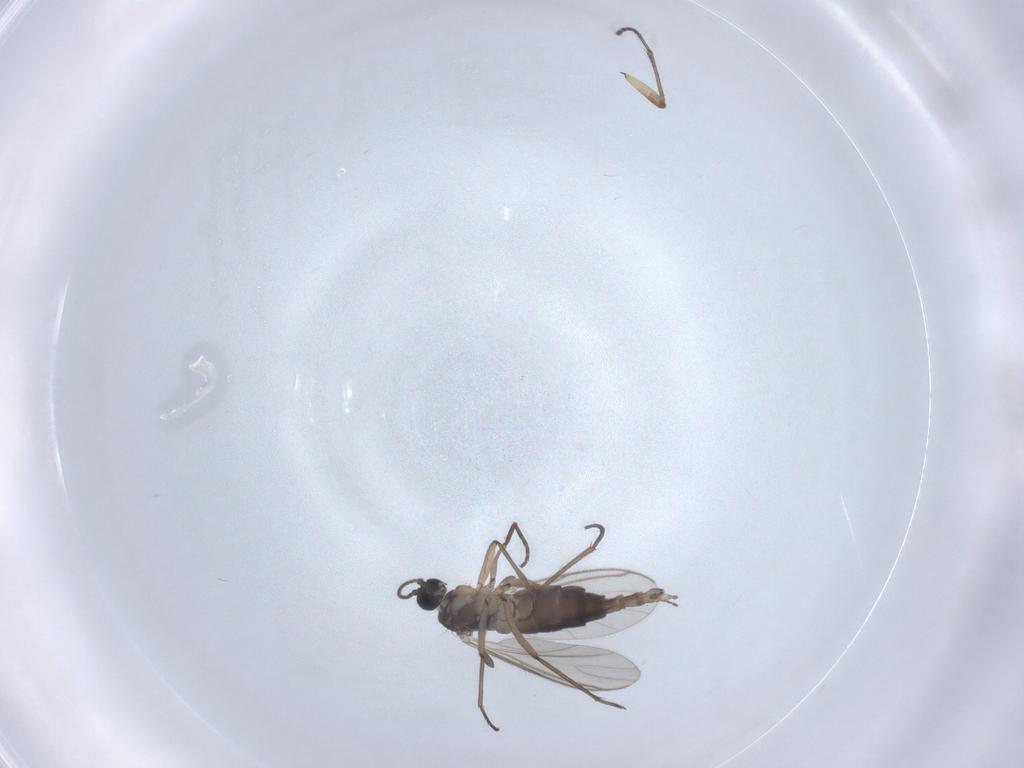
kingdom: Animalia
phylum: Arthropoda
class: Insecta
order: Diptera
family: Sciaridae
